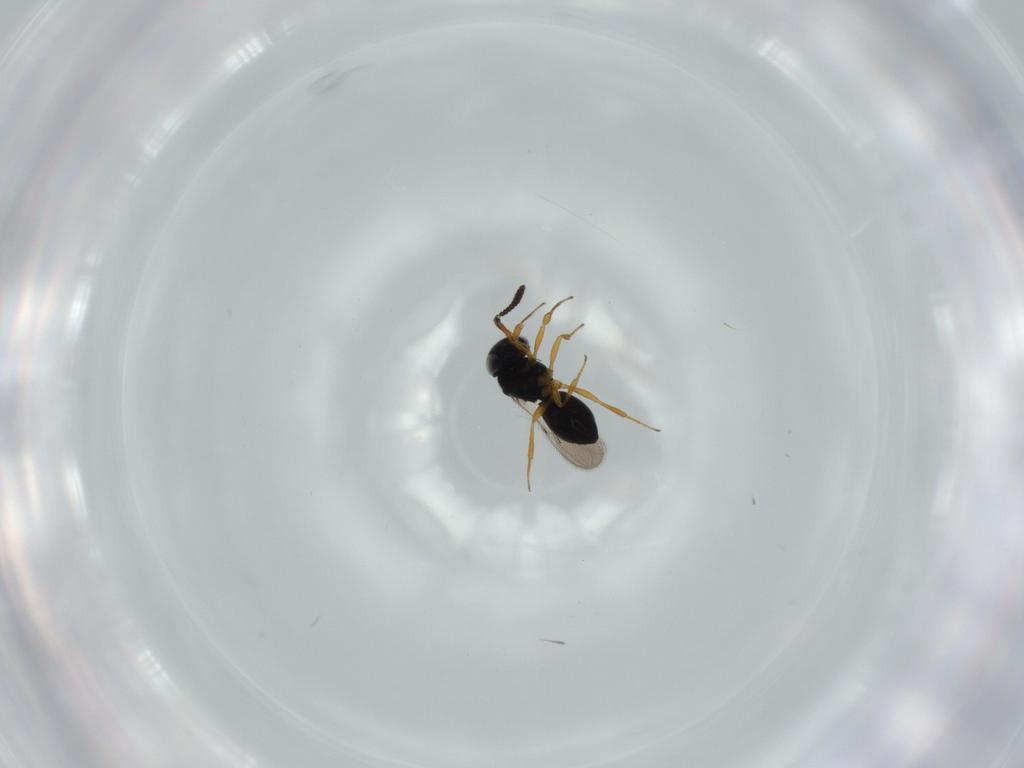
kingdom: Animalia
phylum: Arthropoda
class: Insecta
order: Hymenoptera
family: Scelionidae
